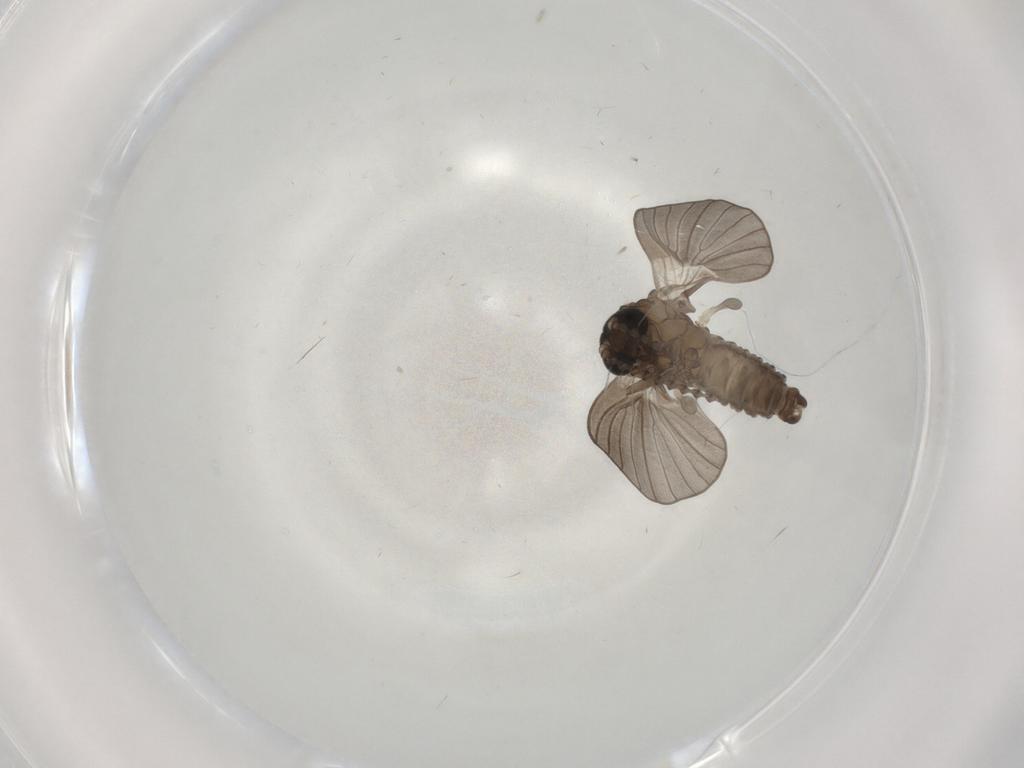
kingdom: Animalia
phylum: Arthropoda
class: Insecta
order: Diptera
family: Psychodidae
